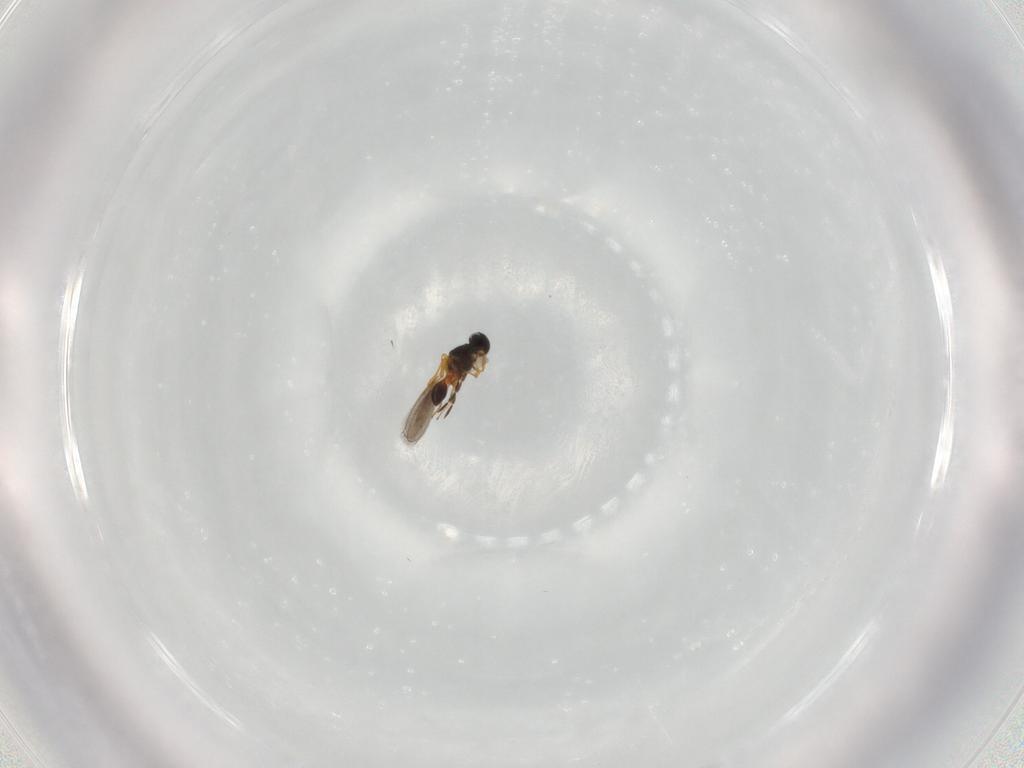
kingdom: Animalia
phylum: Arthropoda
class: Insecta
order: Hymenoptera
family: Platygastridae
